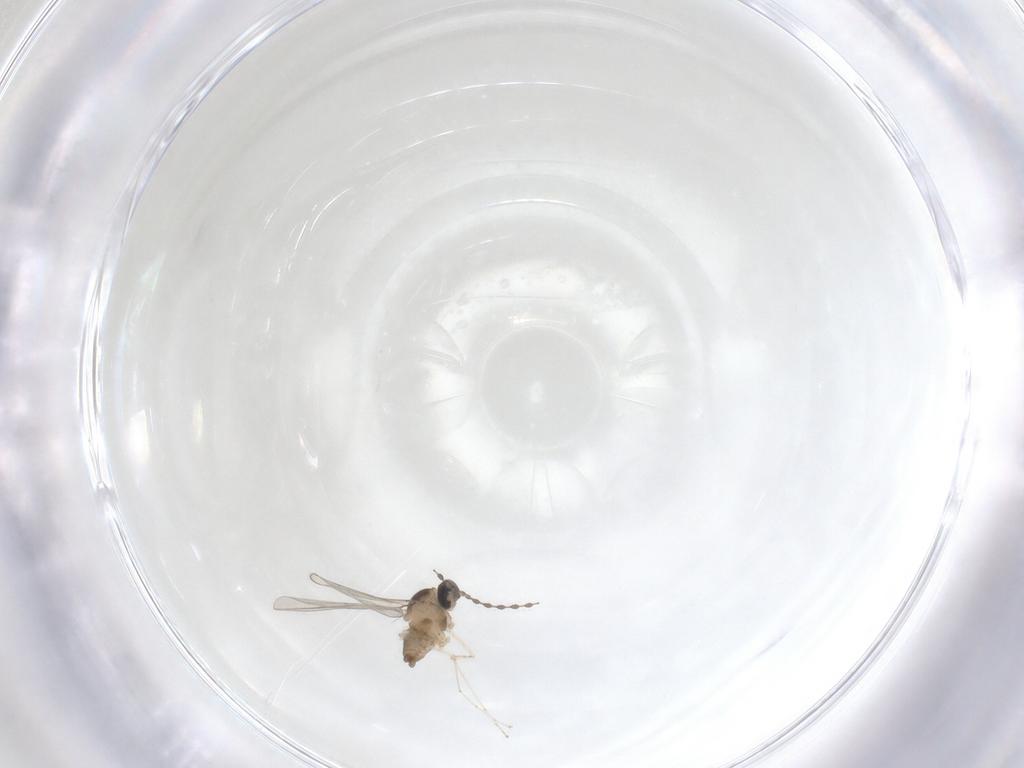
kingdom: Animalia
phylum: Arthropoda
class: Insecta
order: Diptera
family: Cecidomyiidae
